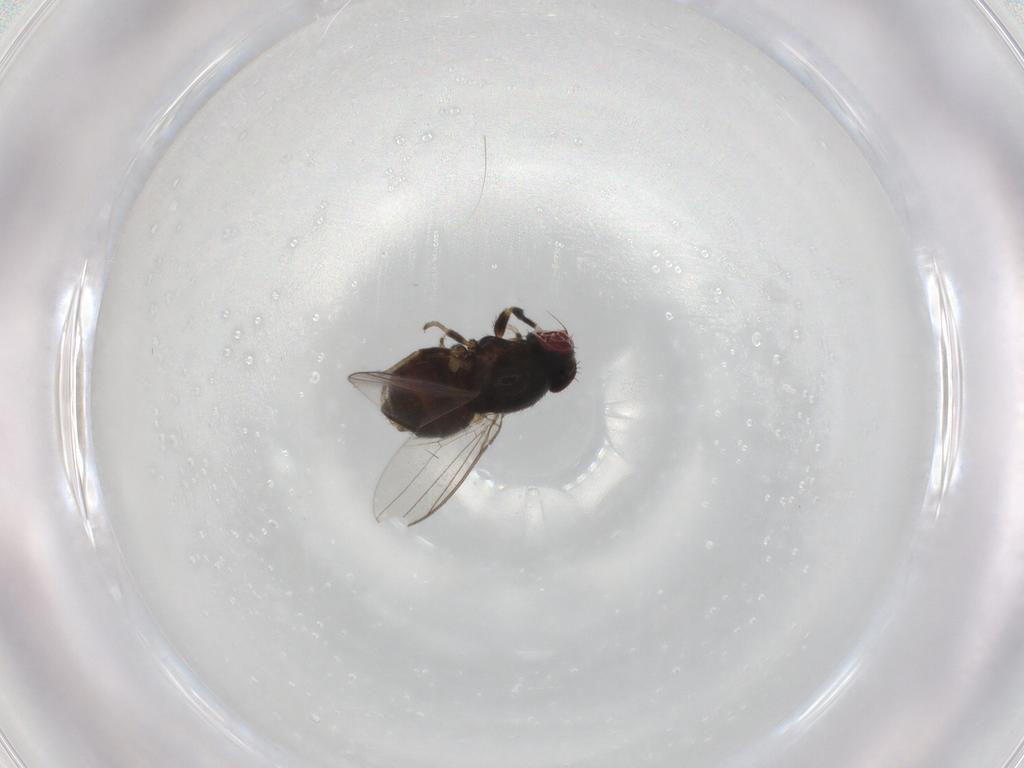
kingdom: Animalia
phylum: Arthropoda
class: Insecta
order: Diptera
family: Chloropidae
